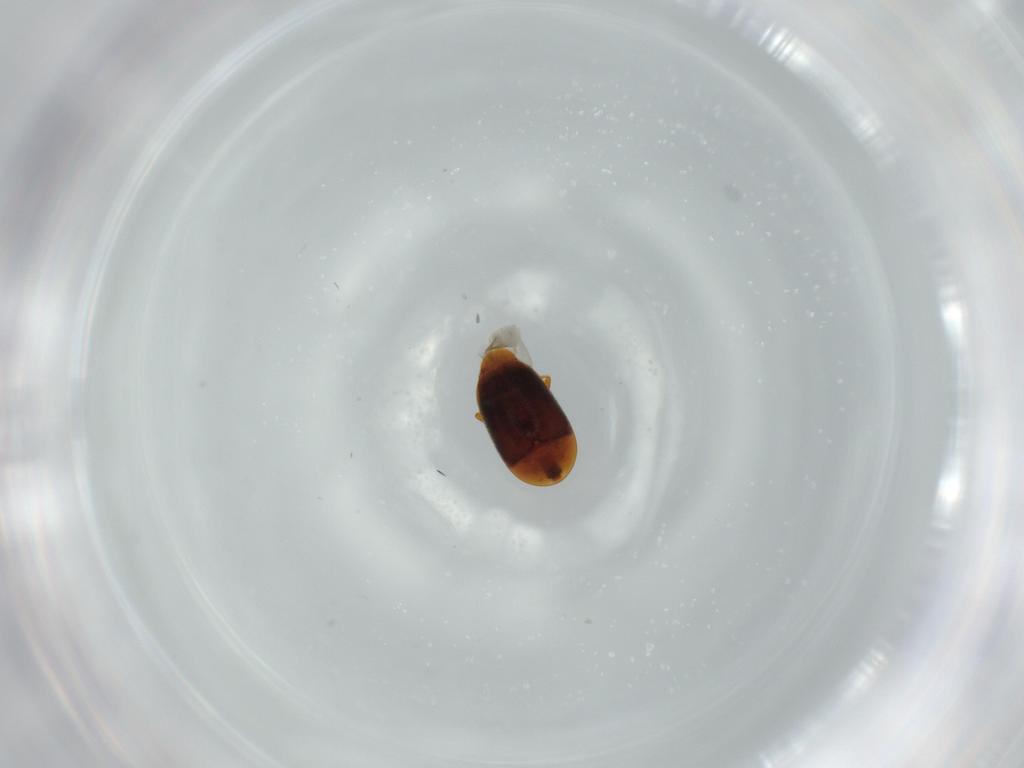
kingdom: Animalia
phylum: Arthropoda
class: Insecta
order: Coleoptera
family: Corylophidae
